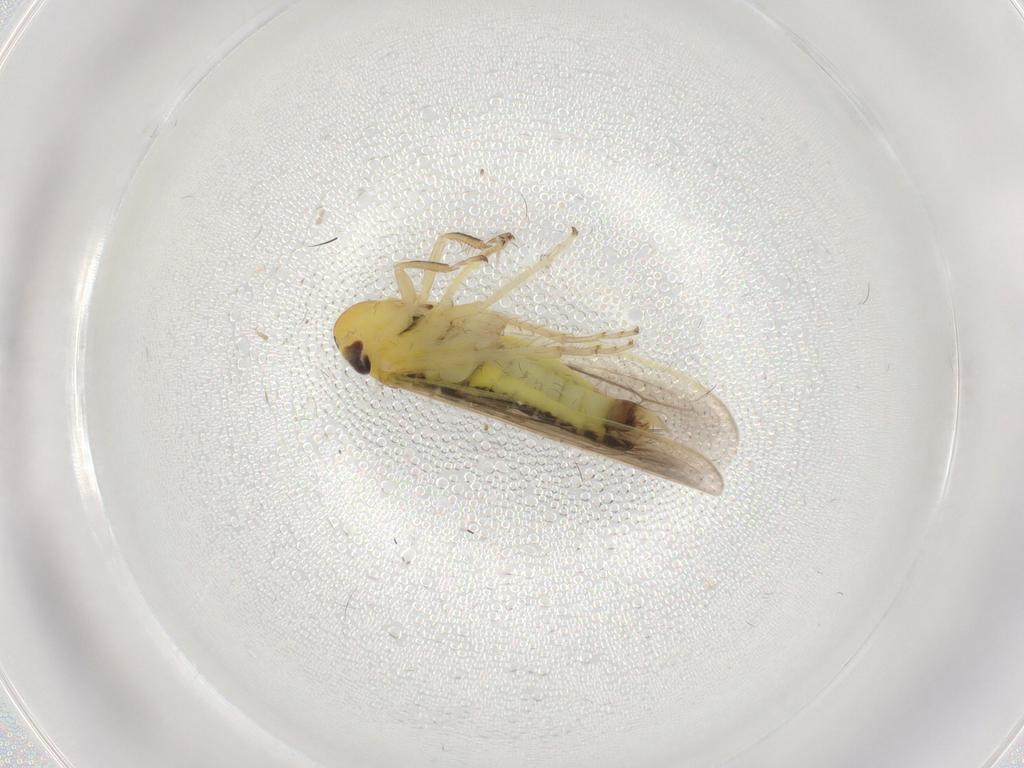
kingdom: Animalia
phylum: Arthropoda
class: Insecta
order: Hemiptera
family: Cicadellidae
